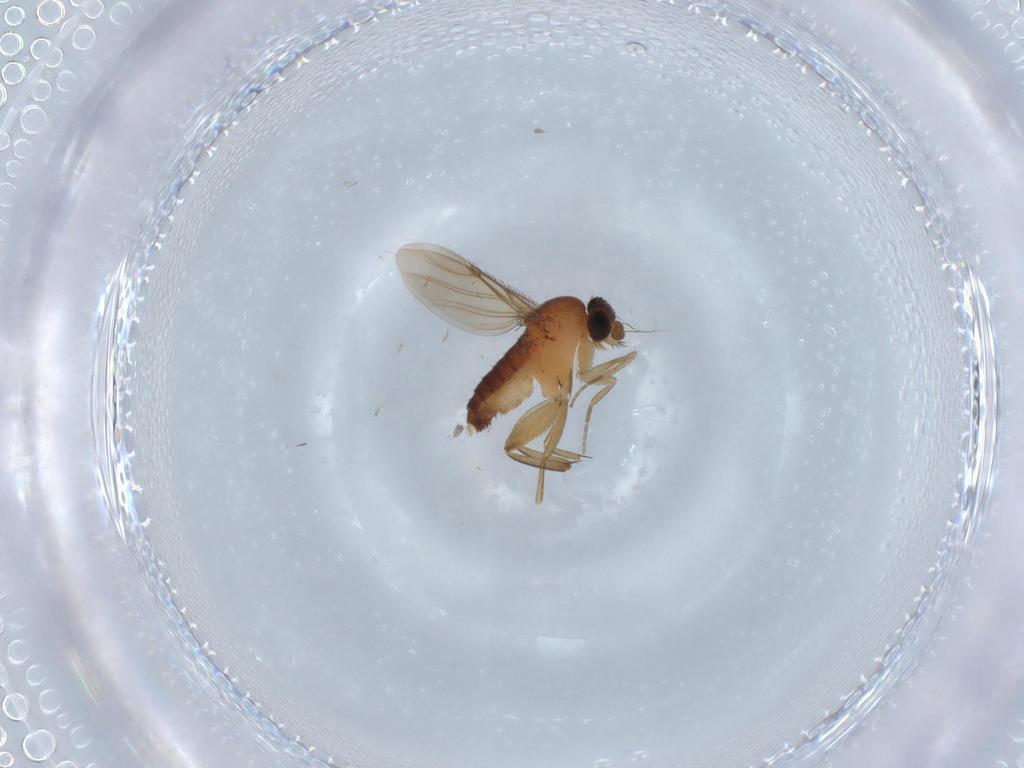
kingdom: Animalia
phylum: Arthropoda
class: Insecta
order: Diptera
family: Phoridae
